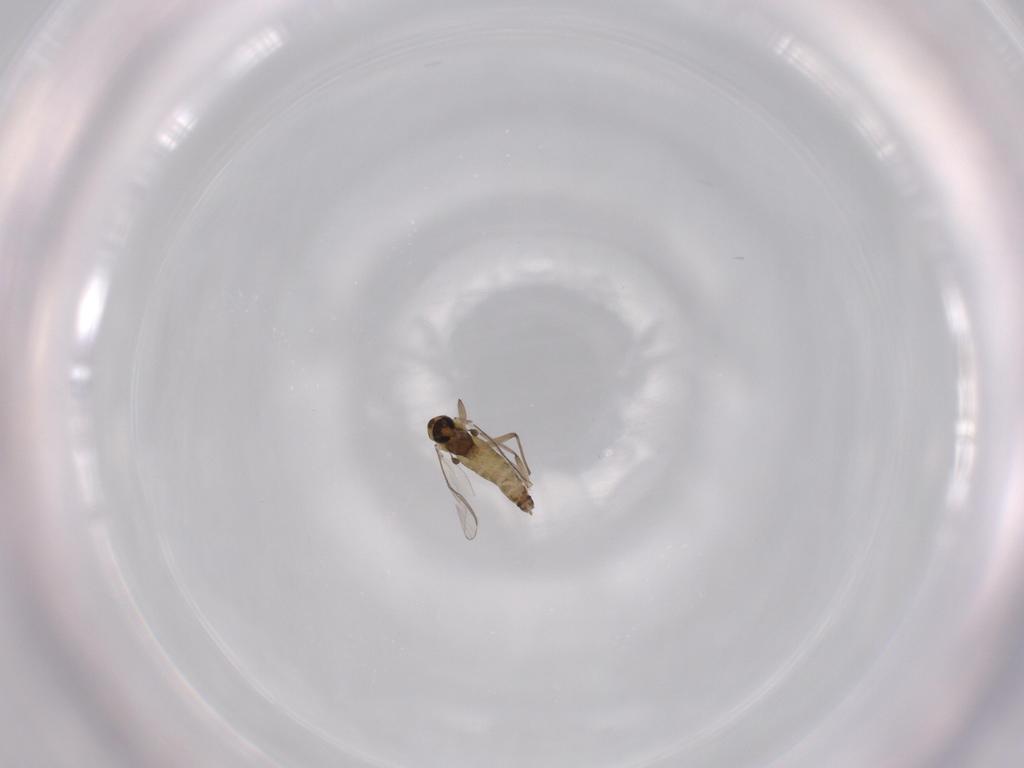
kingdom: Animalia
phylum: Arthropoda
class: Insecta
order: Diptera
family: Chironomidae
